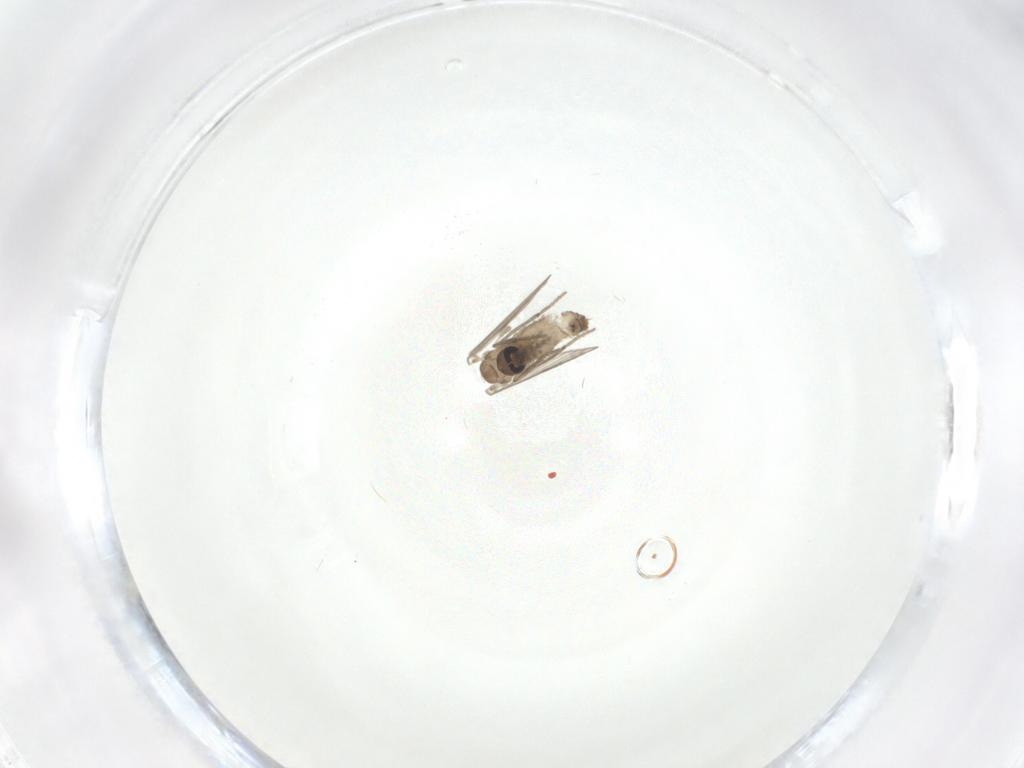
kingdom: Animalia
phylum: Arthropoda
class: Insecta
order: Diptera
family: Psychodidae
